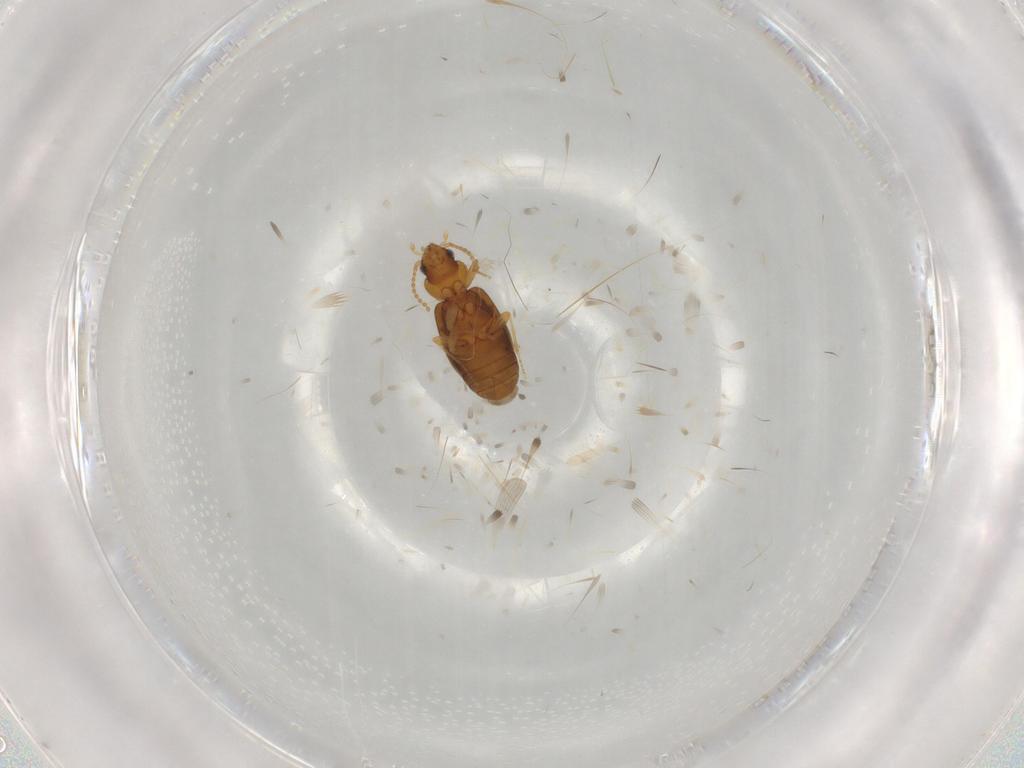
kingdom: Animalia
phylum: Arthropoda
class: Insecta
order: Coleoptera
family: Carabidae
